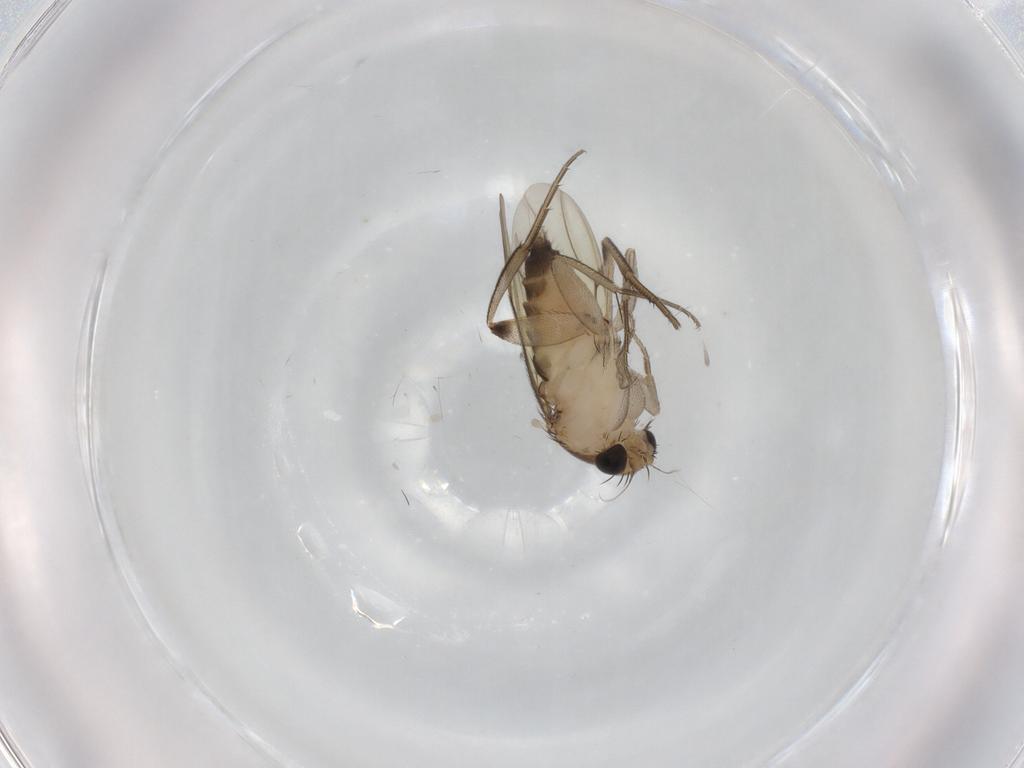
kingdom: Animalia
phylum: Arthropoda
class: Insecta
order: Diptera
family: Phoridae
